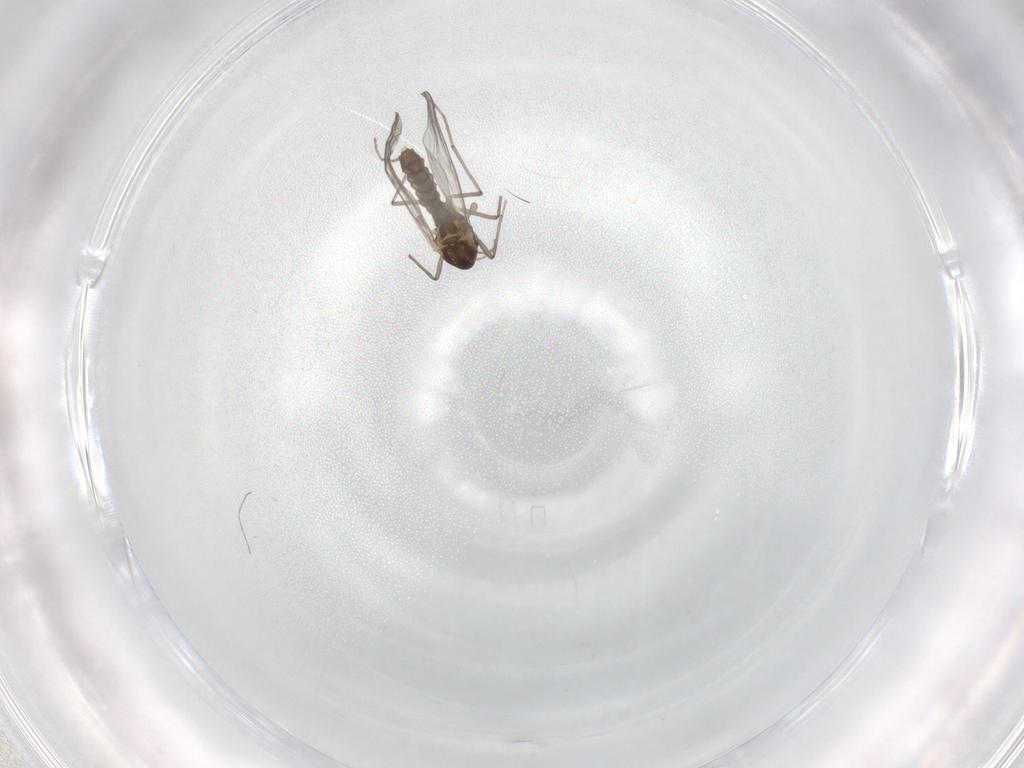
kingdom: Animalia
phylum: Arthropoda
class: Insecta
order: Diptera
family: Chironomidae
